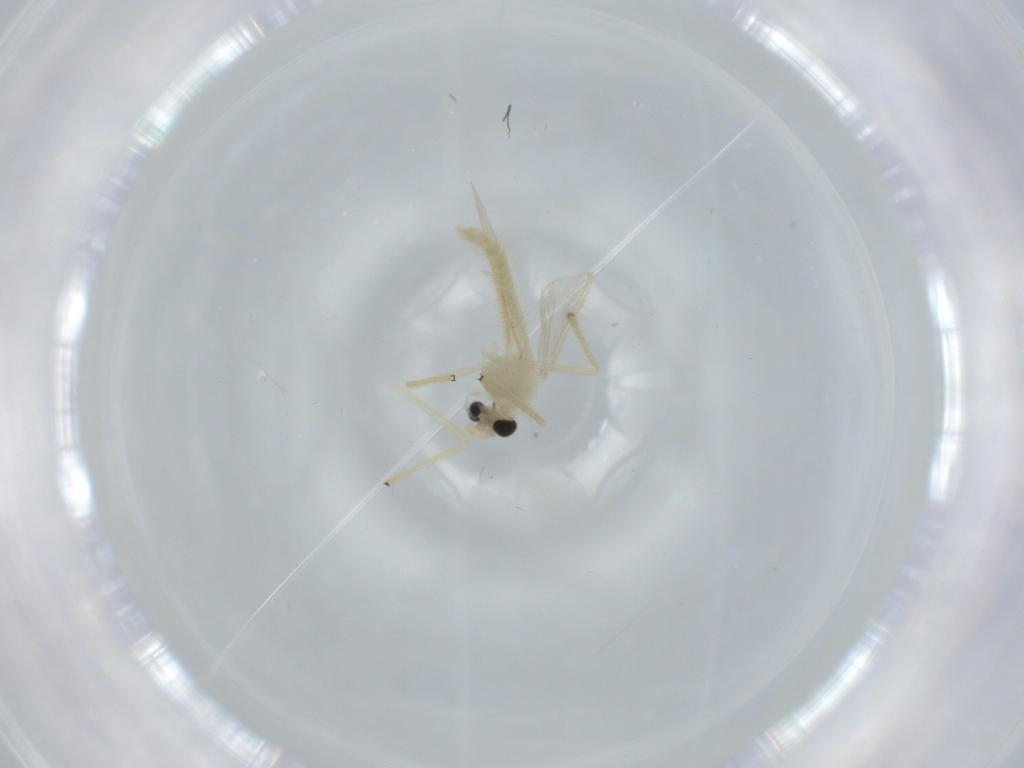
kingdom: Animalia
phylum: Arthropoda
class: Insecta
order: Diptera
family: Chironomidae
